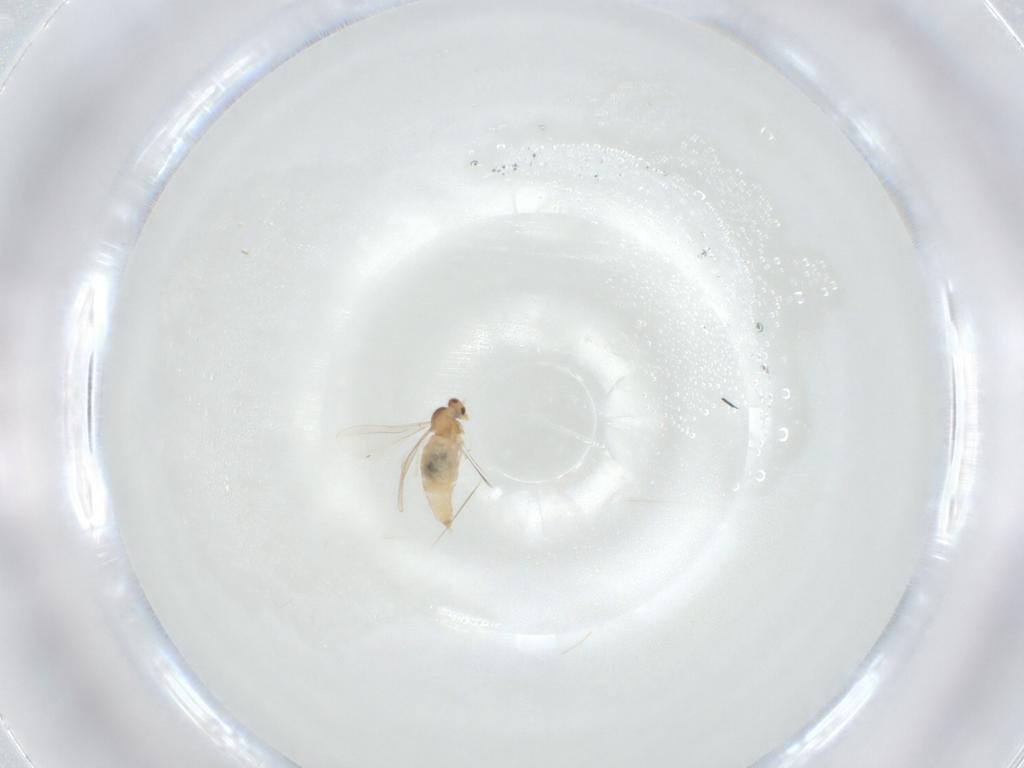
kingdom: Animalia
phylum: Arthropoda
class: Insecta
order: Diptera
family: Cecidomyiidae
